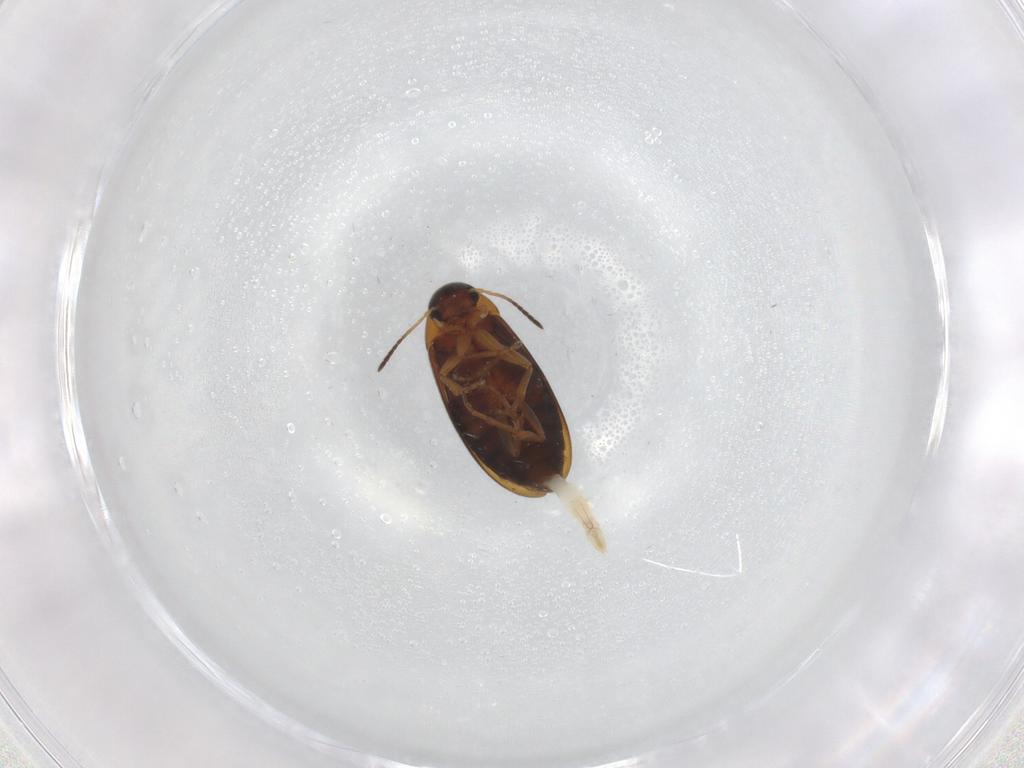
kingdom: Animalia
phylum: Arthropoda
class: Insecta
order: Coleoptera
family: Scraptiidae
